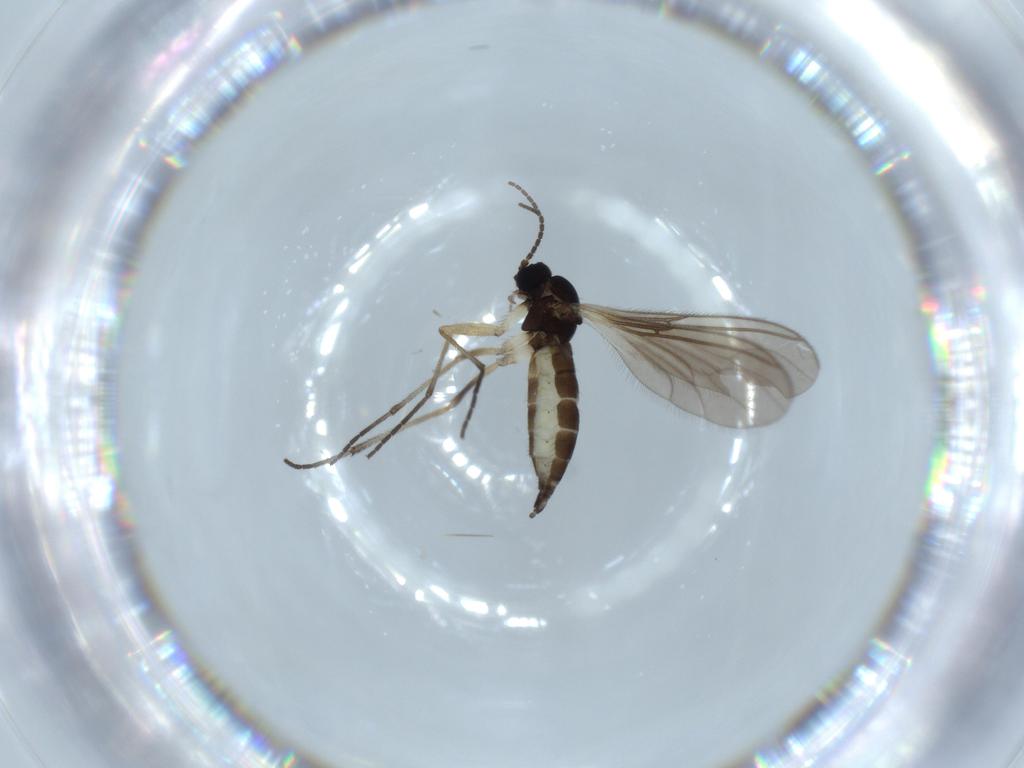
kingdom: Animalia
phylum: Arthropoda
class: Insecta
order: Diptera
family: Sciaridae
